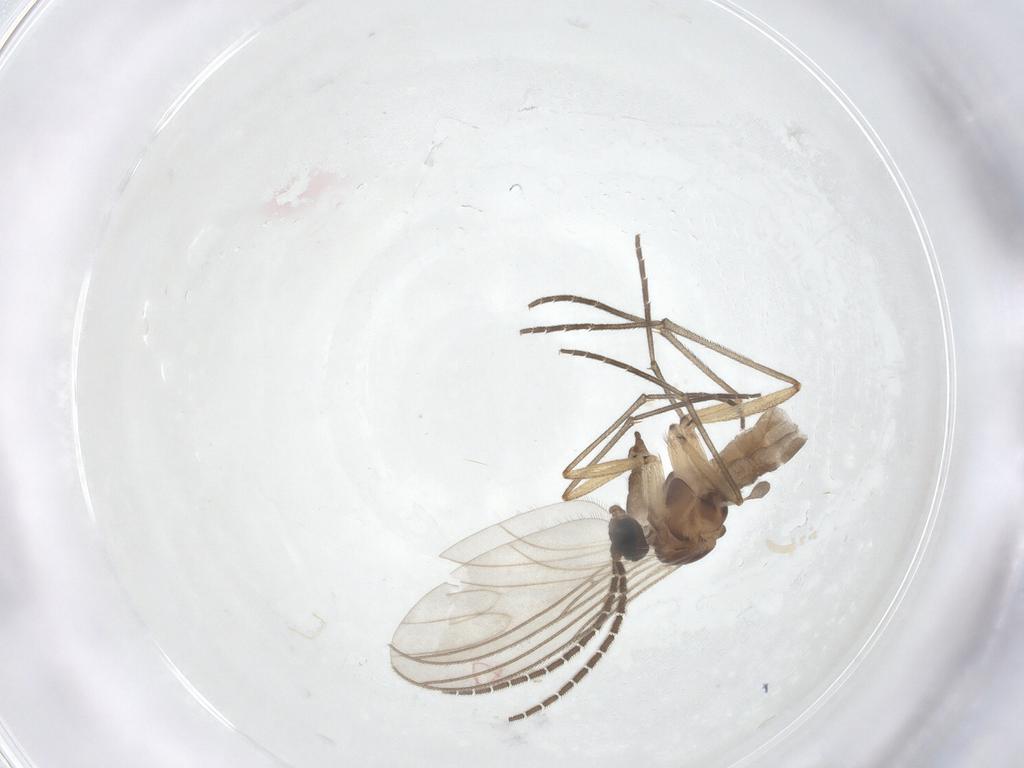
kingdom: Animalia
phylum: Arthropoda
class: Insecta
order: Diptera
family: Sciaridae
